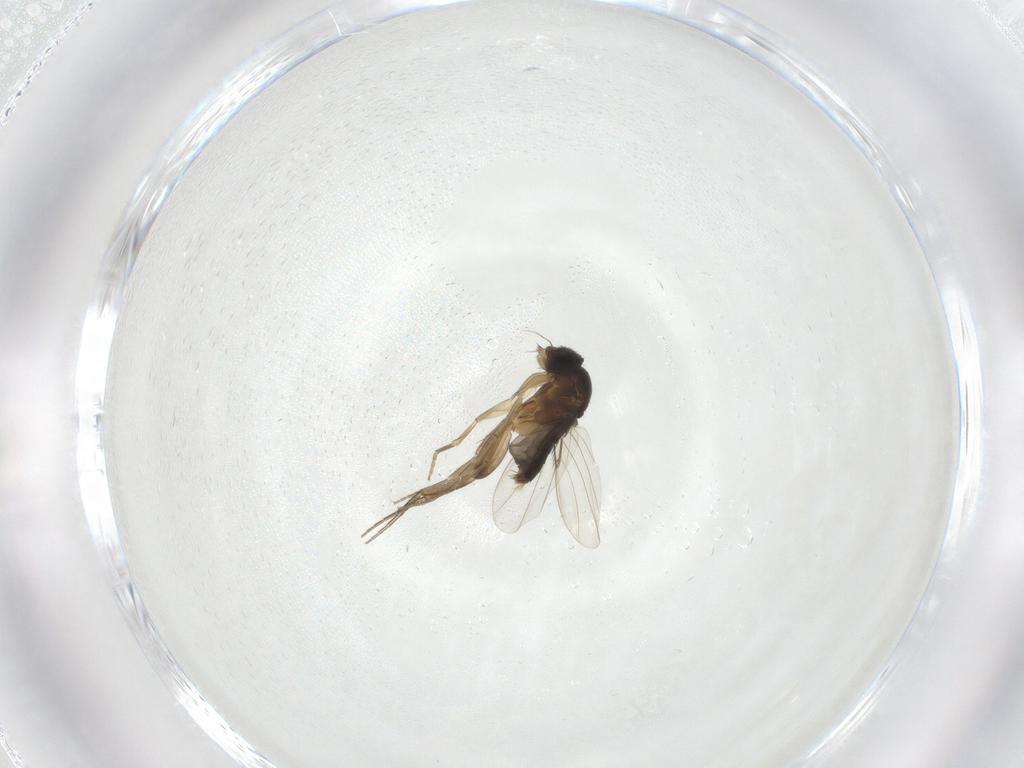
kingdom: Animalia
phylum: Arthropoda
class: Insecta
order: Diptera
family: Phoridae
